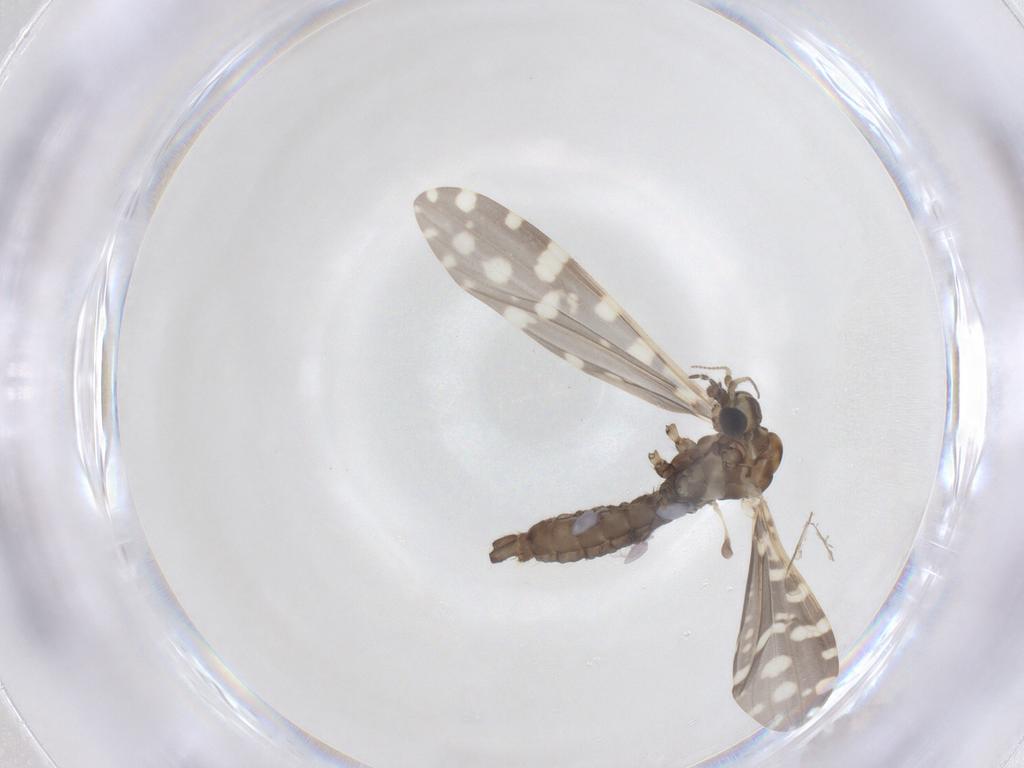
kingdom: Animalia
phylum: Arthropoda
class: Insecta
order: Diptera
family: Limoniidae
